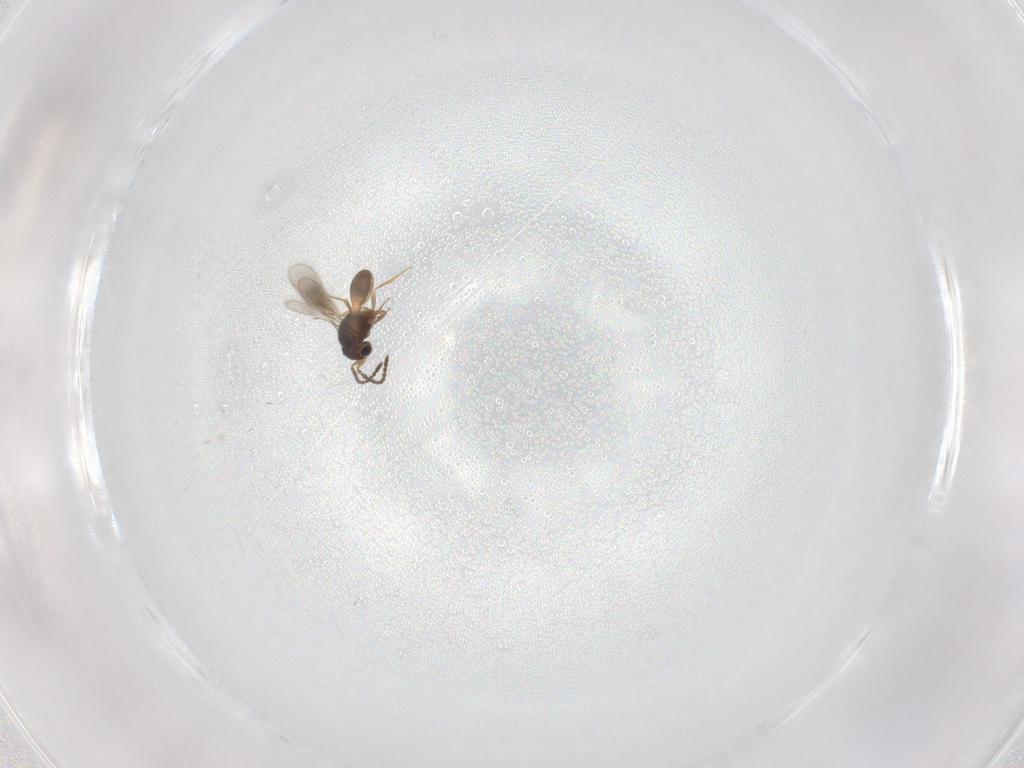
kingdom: Animalia
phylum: Arthropoda
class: Insecta
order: Hymenoptera
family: Scelionidae
